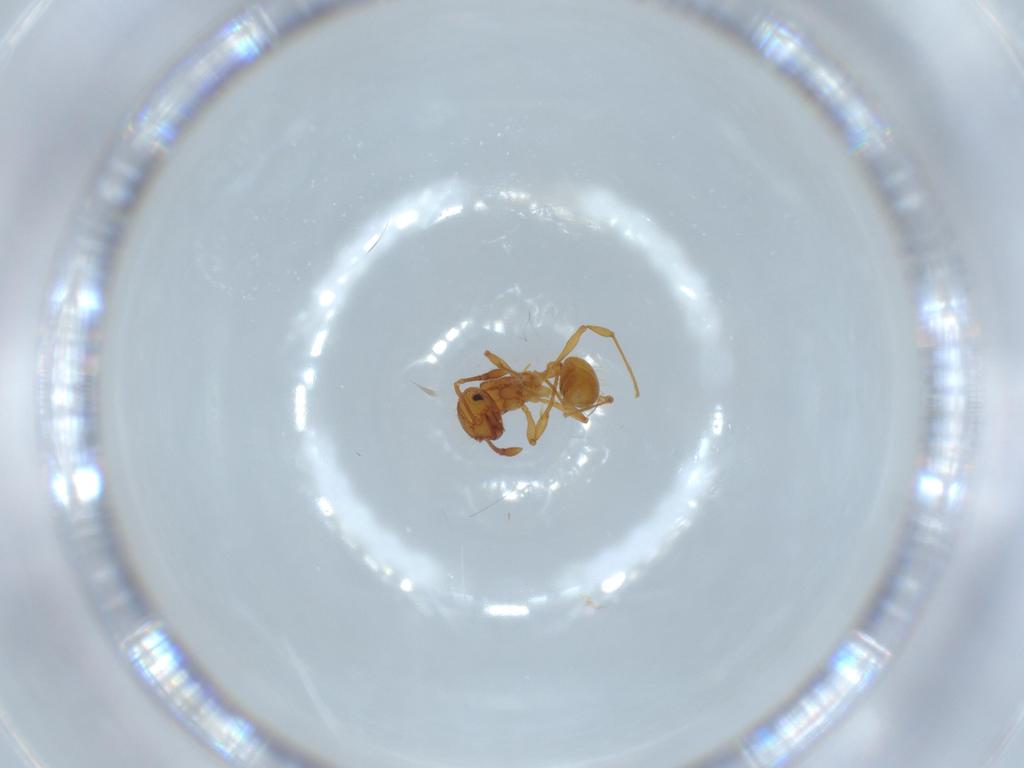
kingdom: Animalia
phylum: Arthropoda
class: Insecta
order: Hymenoptera
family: Formicidae
